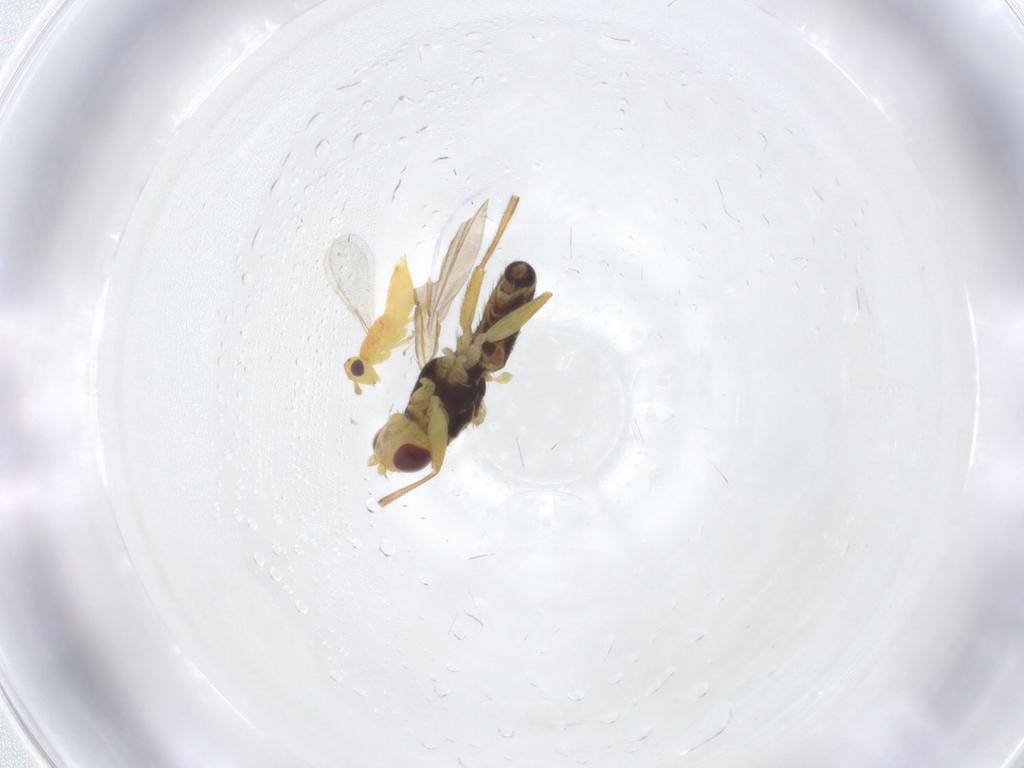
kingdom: Animalia
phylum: Arthropoda
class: Insecta
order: Diptera
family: Agromyzidae
